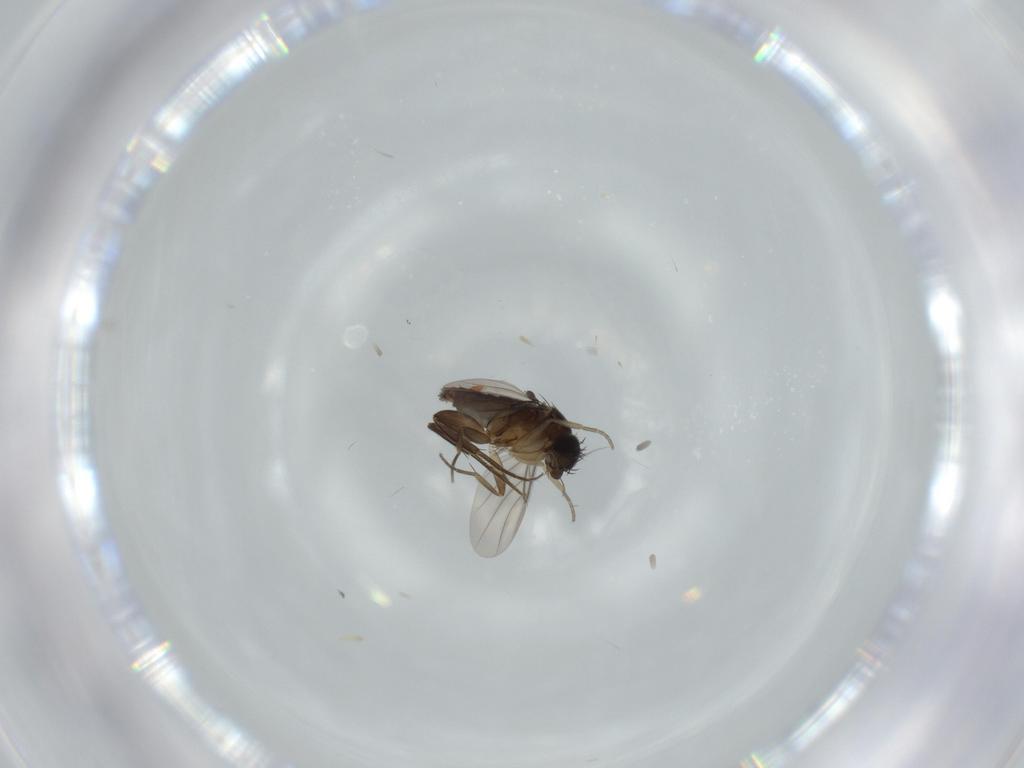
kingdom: Animalia
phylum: Arthropoda
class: Insecta
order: Diptera
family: Phoridae
